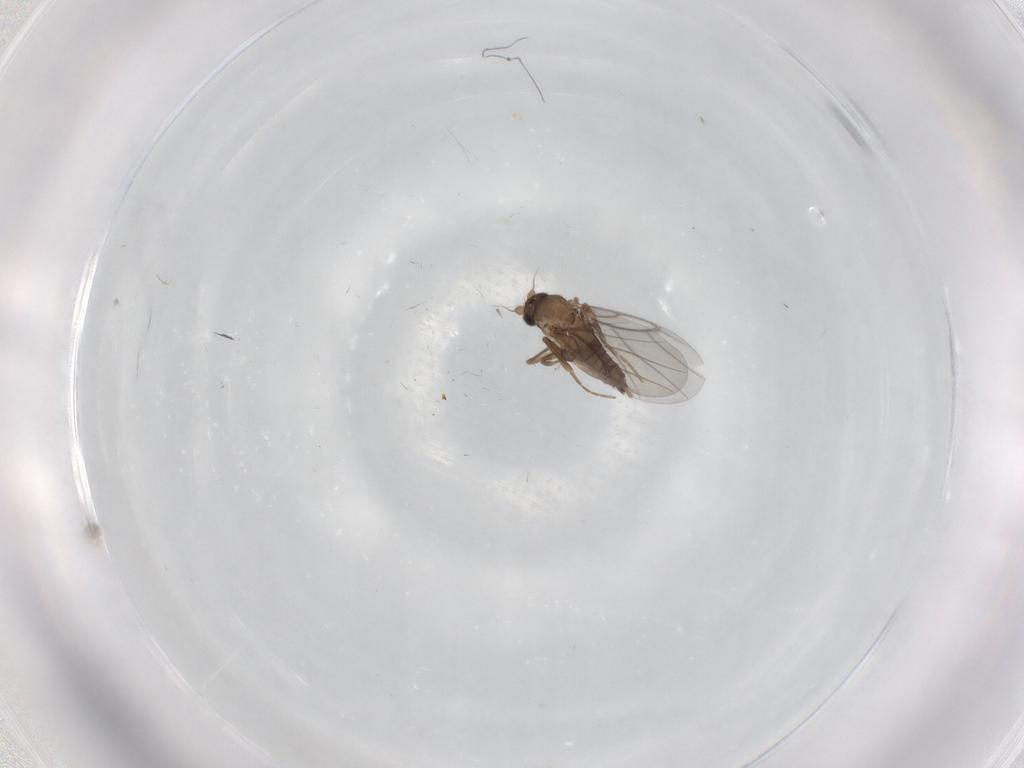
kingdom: Animalia
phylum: Arthropoda
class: Insecta
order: Diptera
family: Sciaridae
